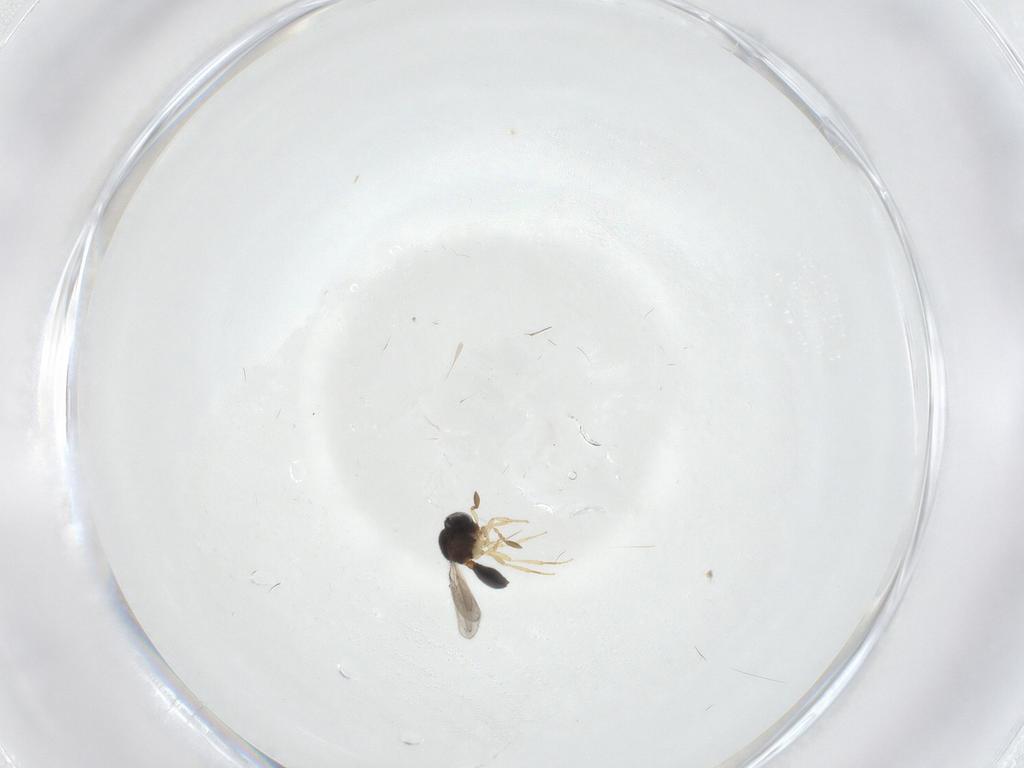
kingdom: Animalia
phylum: Arthropoda
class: Insecta
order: Hymenoptera
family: Scelionidae
